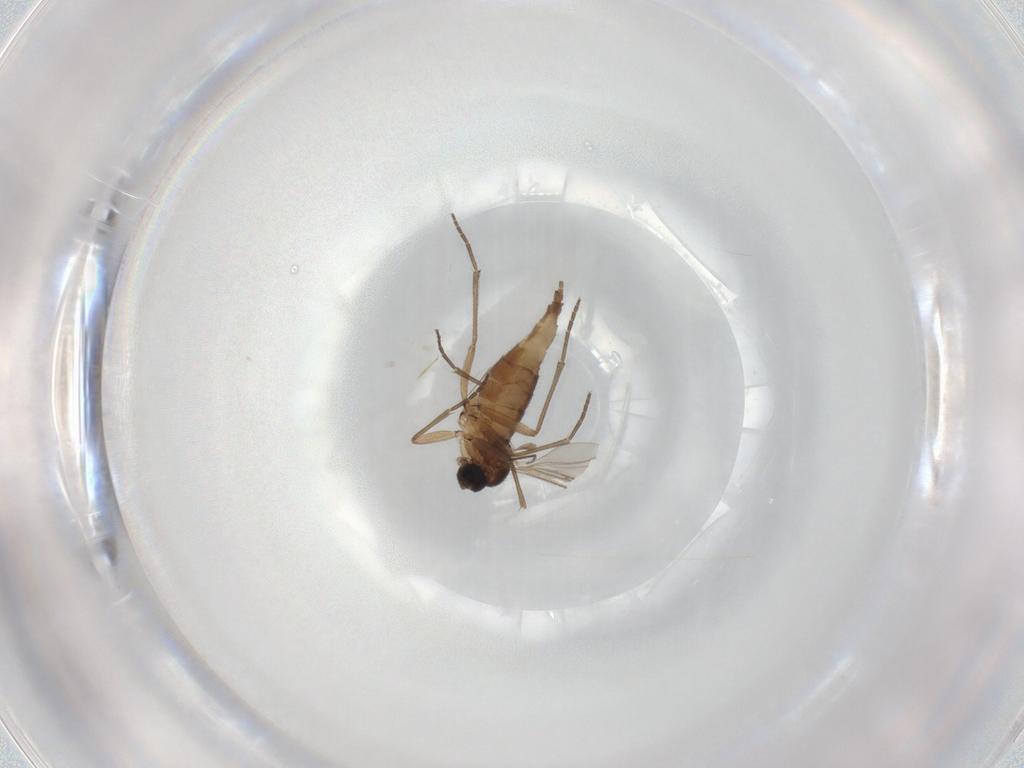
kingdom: Animalia
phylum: Arthropoda
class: Insecta
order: Diptera
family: Chironomidae
